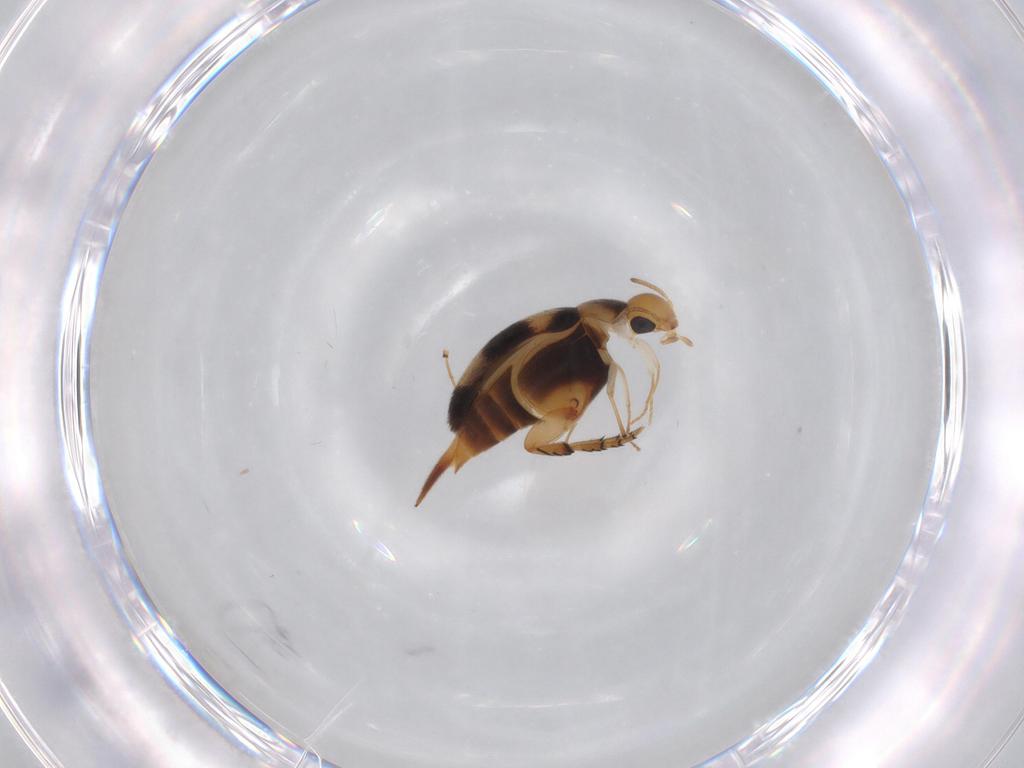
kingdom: Animalia
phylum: Arthropoda
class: Insecta
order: Coleoptera
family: Mordellidae
